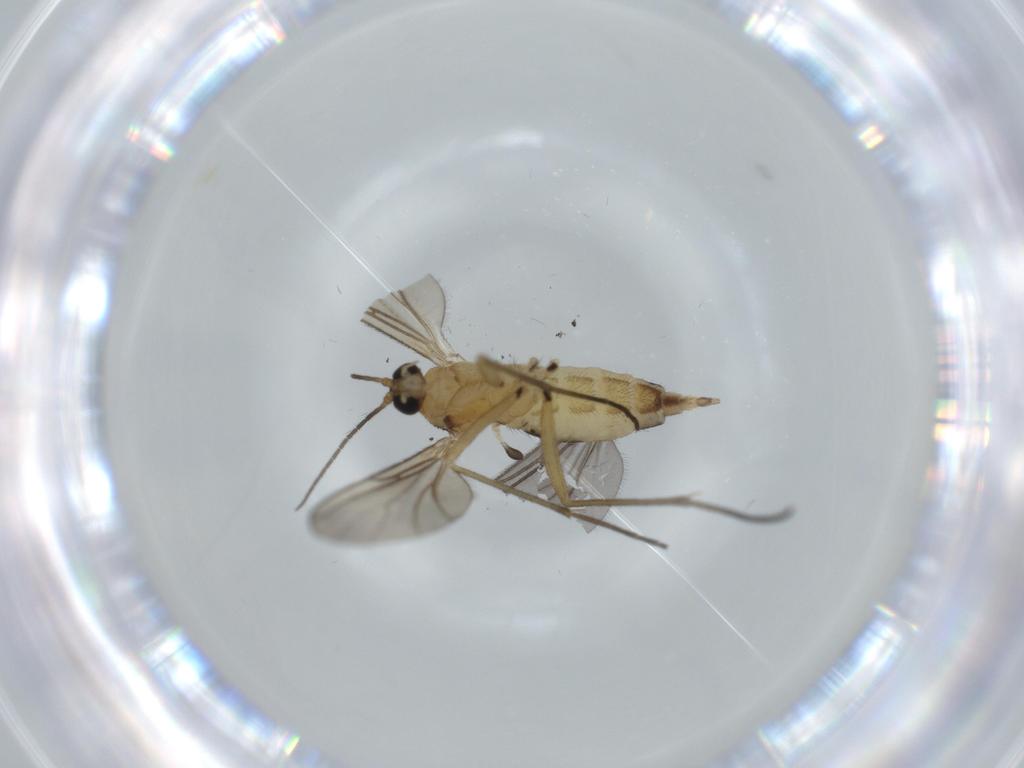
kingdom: Animalia
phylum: Arthropoda
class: Insecta
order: Diptera
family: Sciaridae
